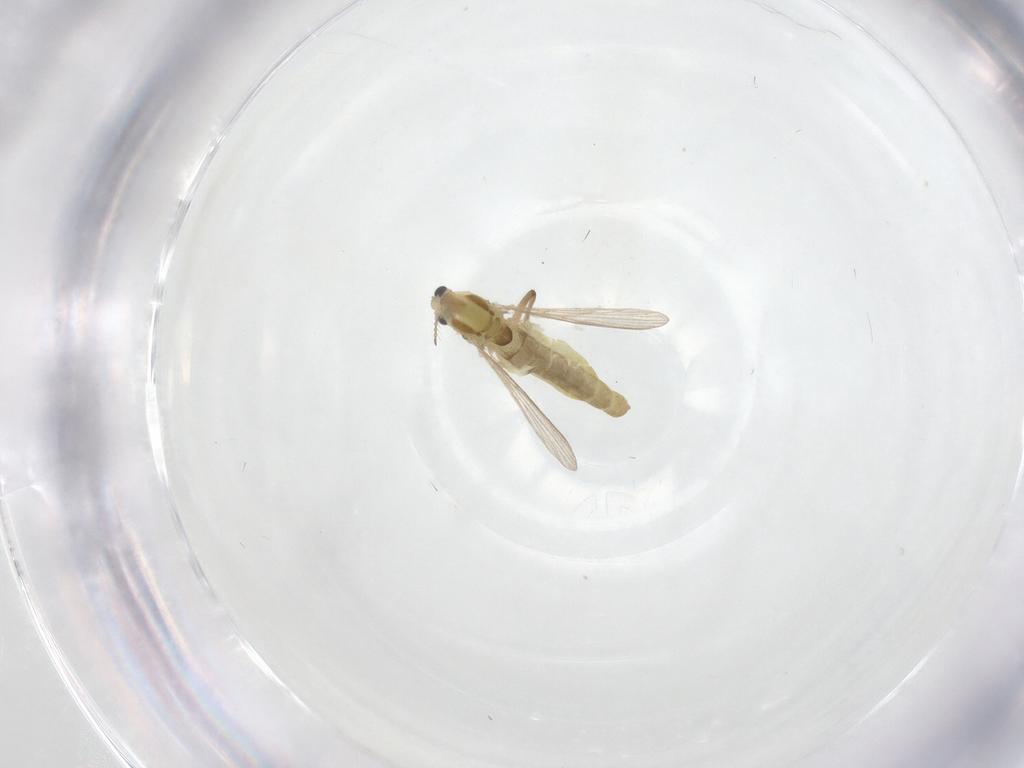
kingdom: Animalia
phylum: Arthropoda
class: Insecta
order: Diptera
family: Chironomidae
